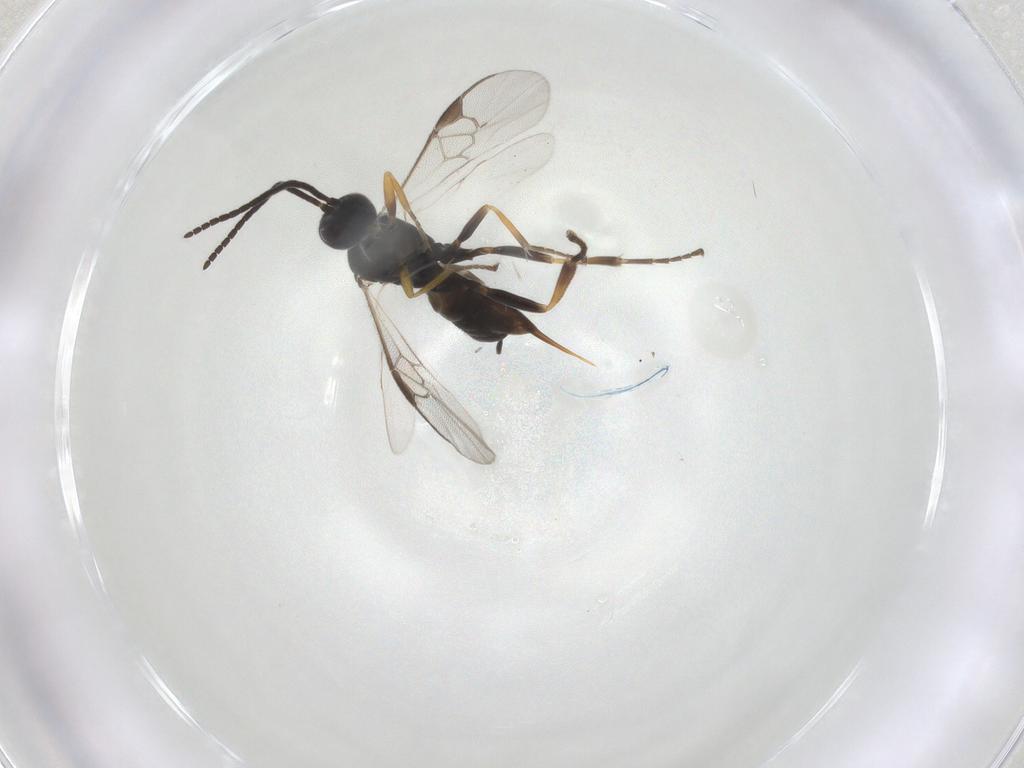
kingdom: Animalia
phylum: Arthropoda
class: Insecta
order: Hymenoptera
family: Braconidae
